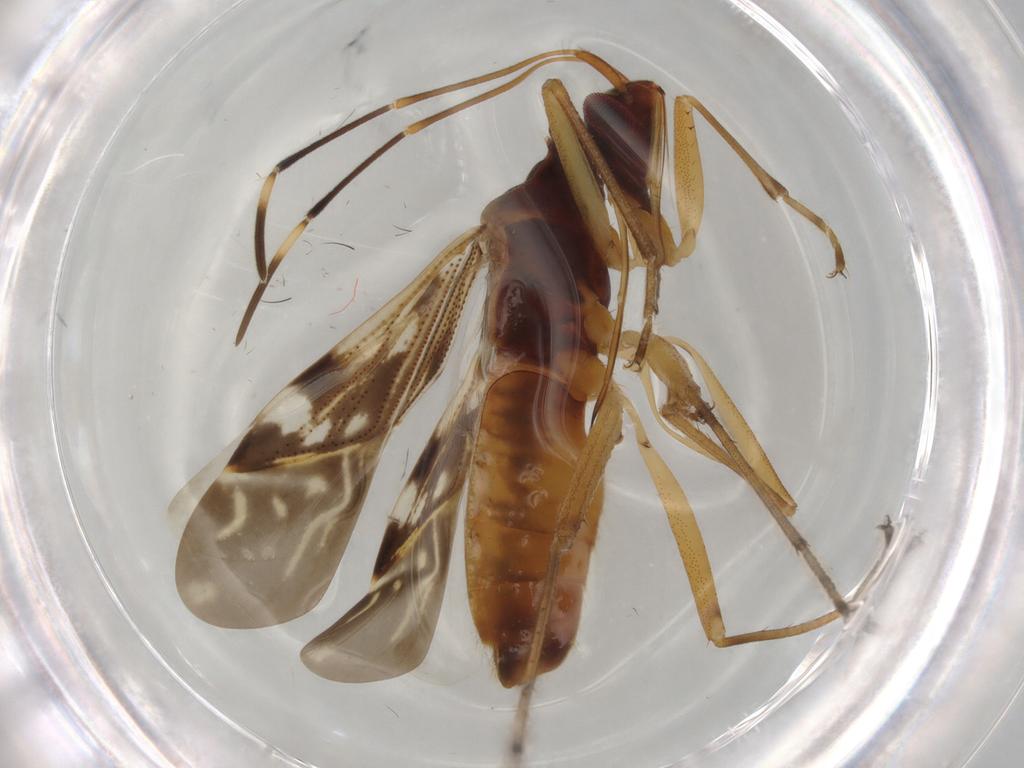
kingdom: Animalia
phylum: Arthropoda
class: Insecta
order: Hemiptera
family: Rhyparochromidae
